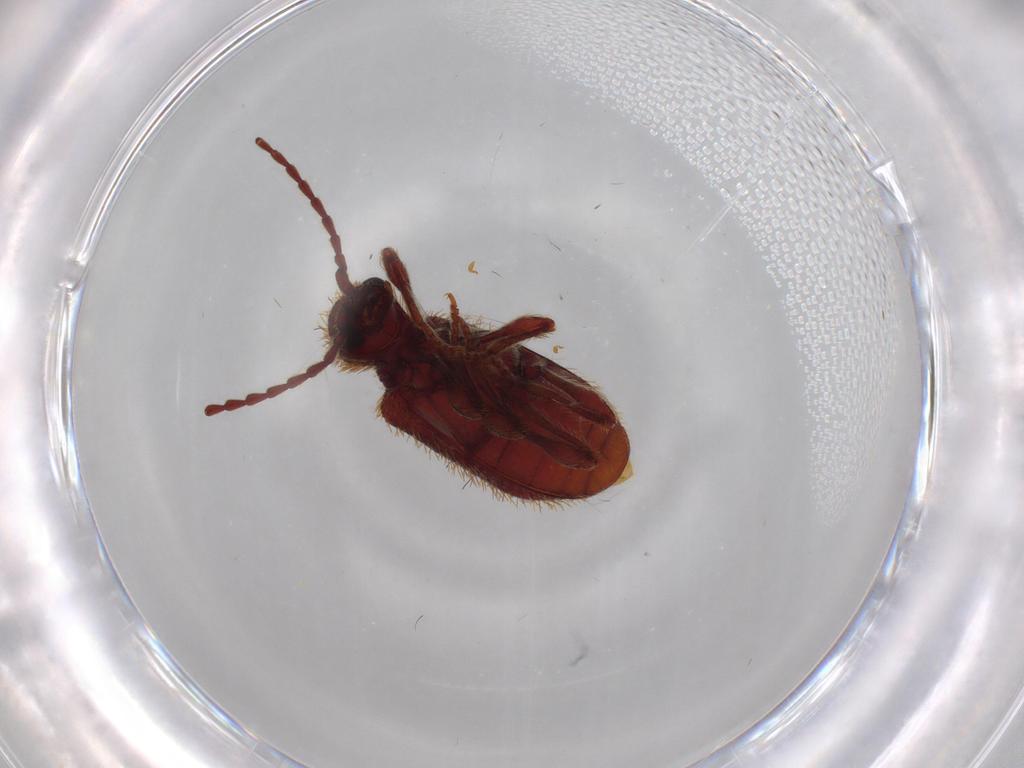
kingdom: Animalia
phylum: Arthropoda
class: Insecta
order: Coleoptera
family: Ptinidae
